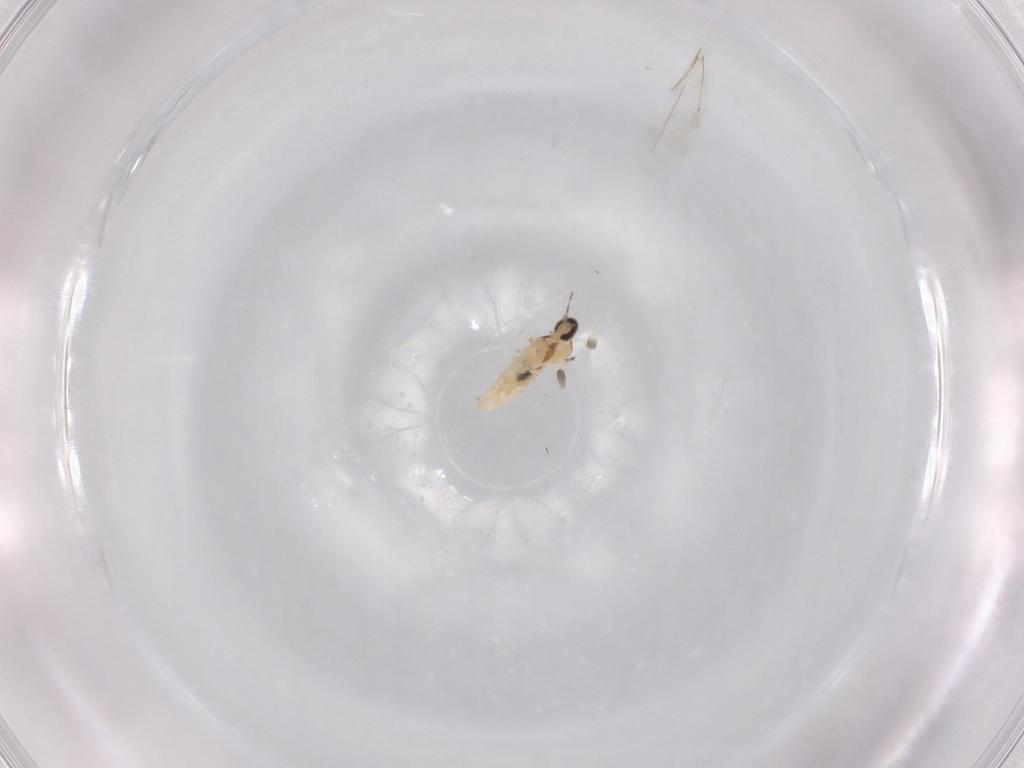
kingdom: Animalia
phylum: Arthropoda
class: Insecta
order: Diptera
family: Cecidomyiidae
